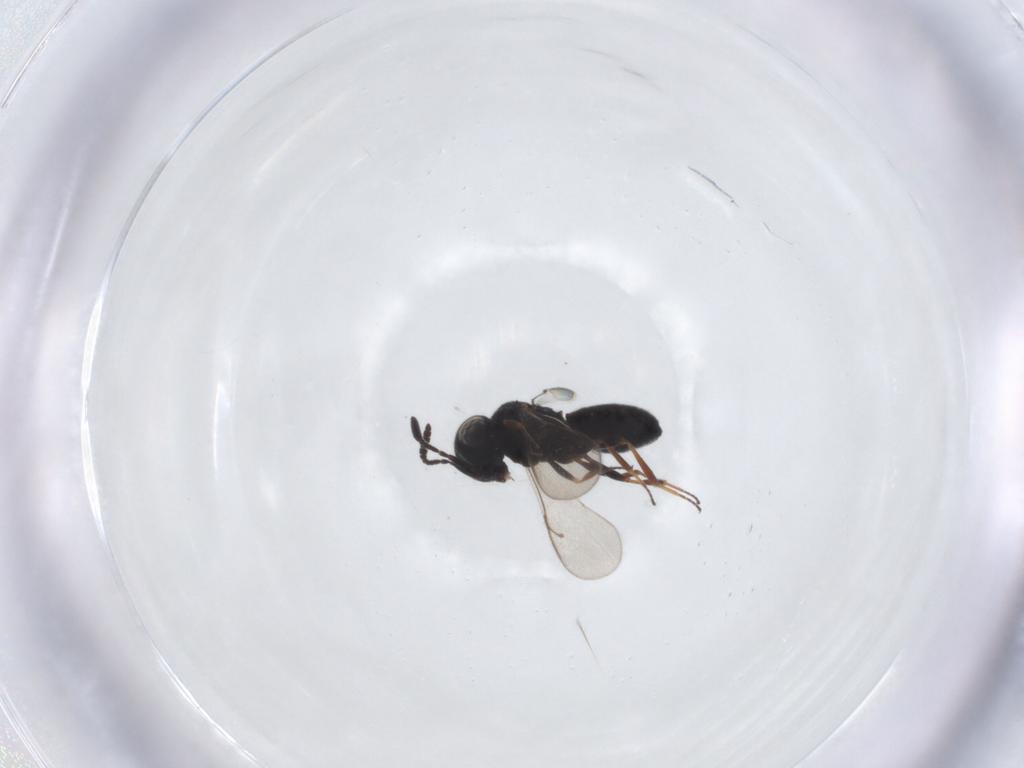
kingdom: Animalia
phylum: Arthropoda
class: Insecta
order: Hymenoptera
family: Scelionidae
